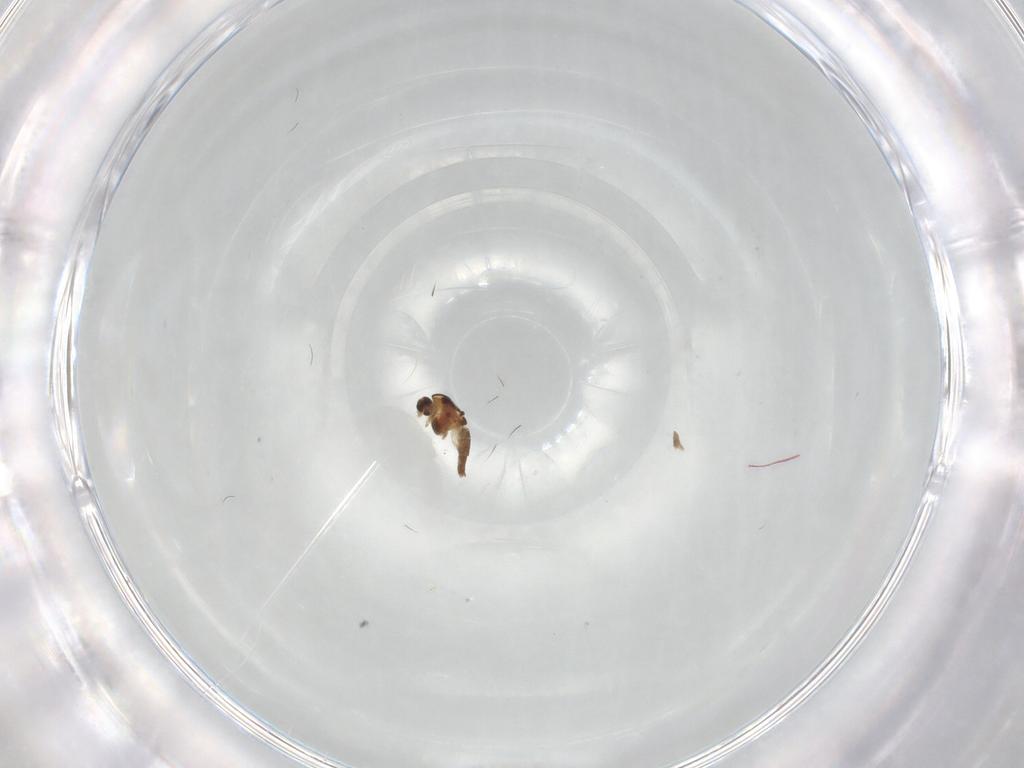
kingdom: Animalia
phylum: Arthropoda
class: Insecta
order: Diptera
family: Chironomidae
